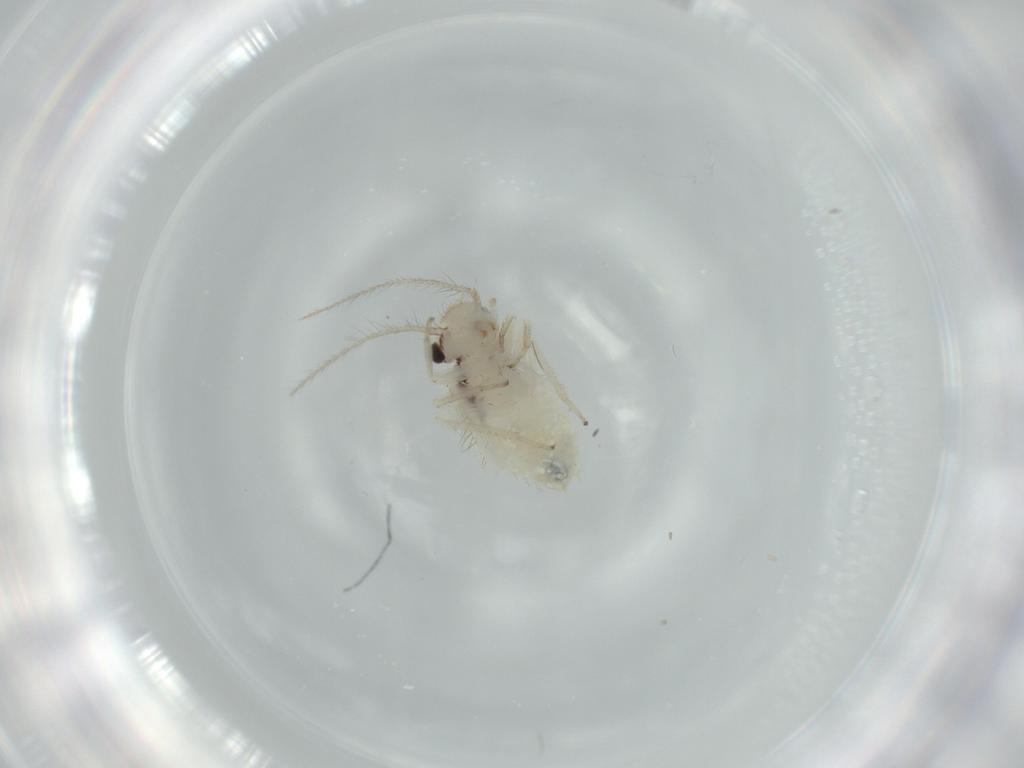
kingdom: Animalia
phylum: Arthropoda
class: Insecta
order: Psocodea
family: Pseudocaeciliidae
